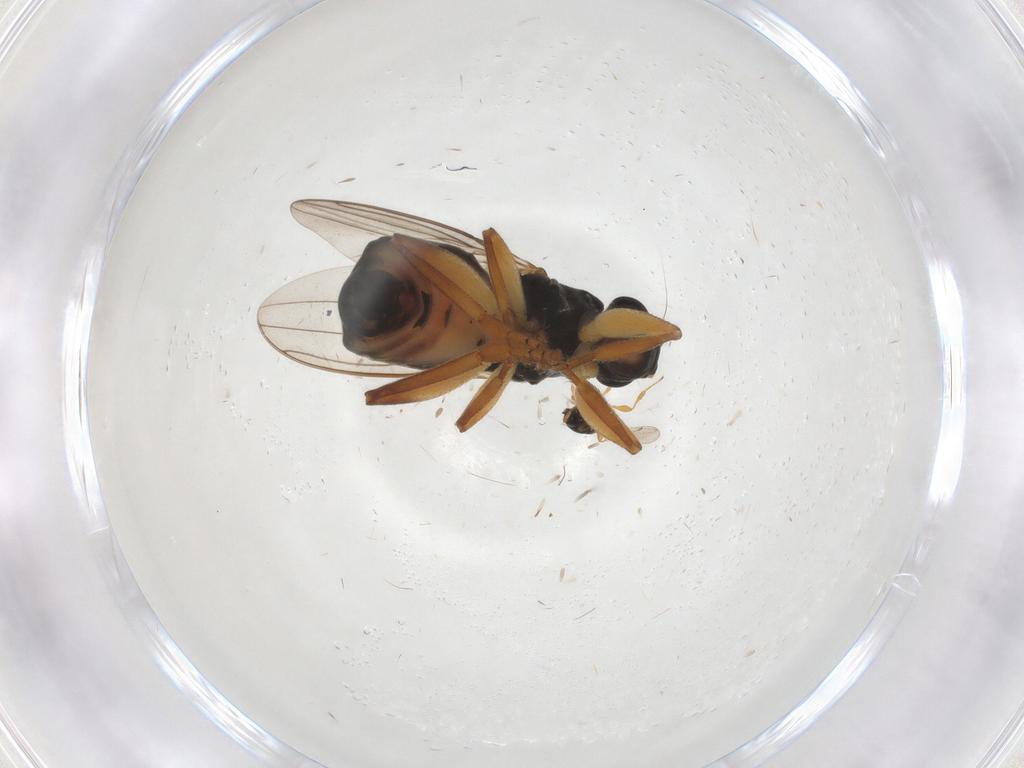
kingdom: Animalia
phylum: Arthropoda
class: Insecta
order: Diptera
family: Sphaeroceridae
